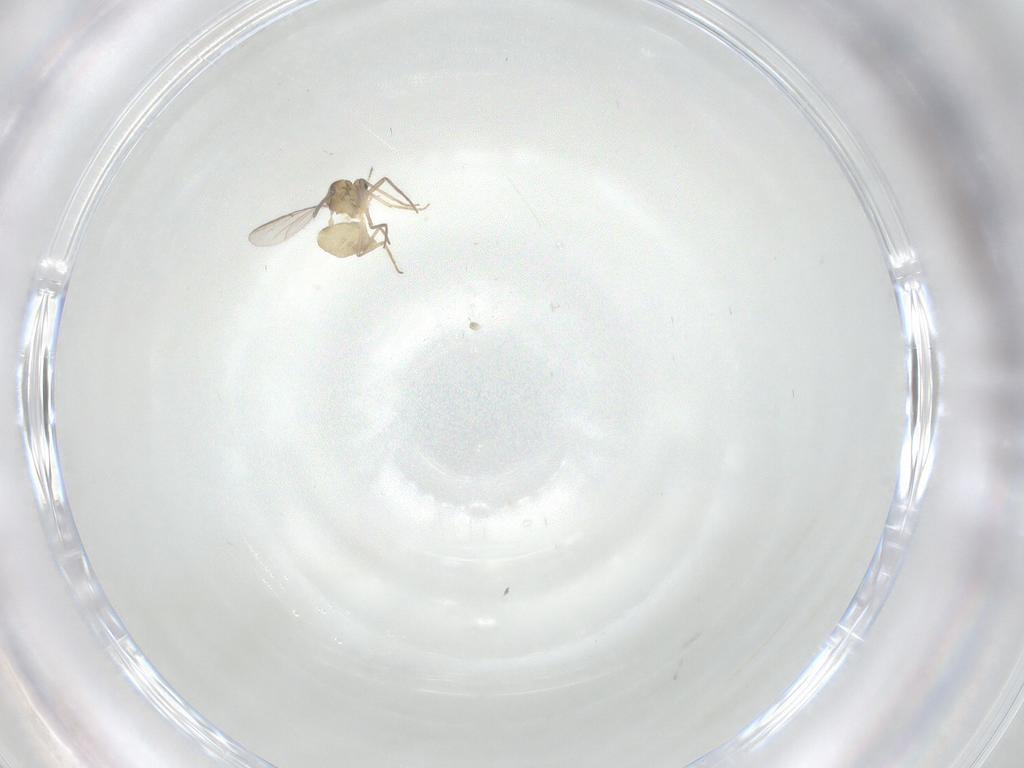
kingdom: Animalia
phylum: Arthropoda
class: Insecta
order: Diptera
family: Chironomidae
